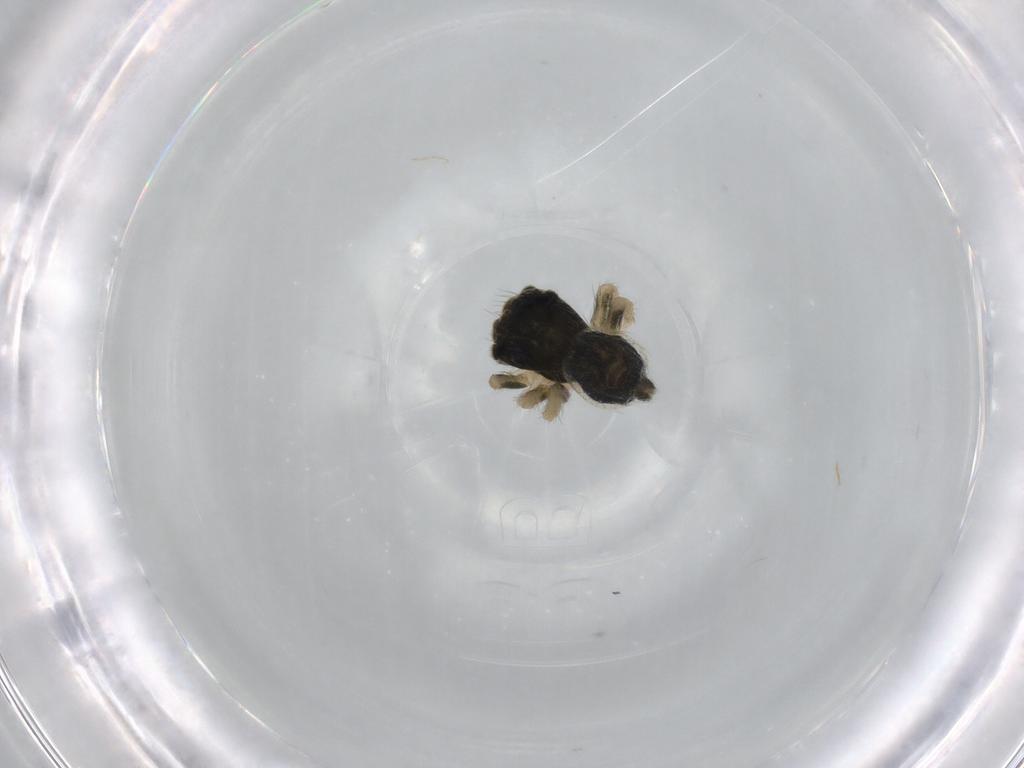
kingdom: Animalia
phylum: Arthropoda
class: Arachnida
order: Araneae
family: Salticidae
